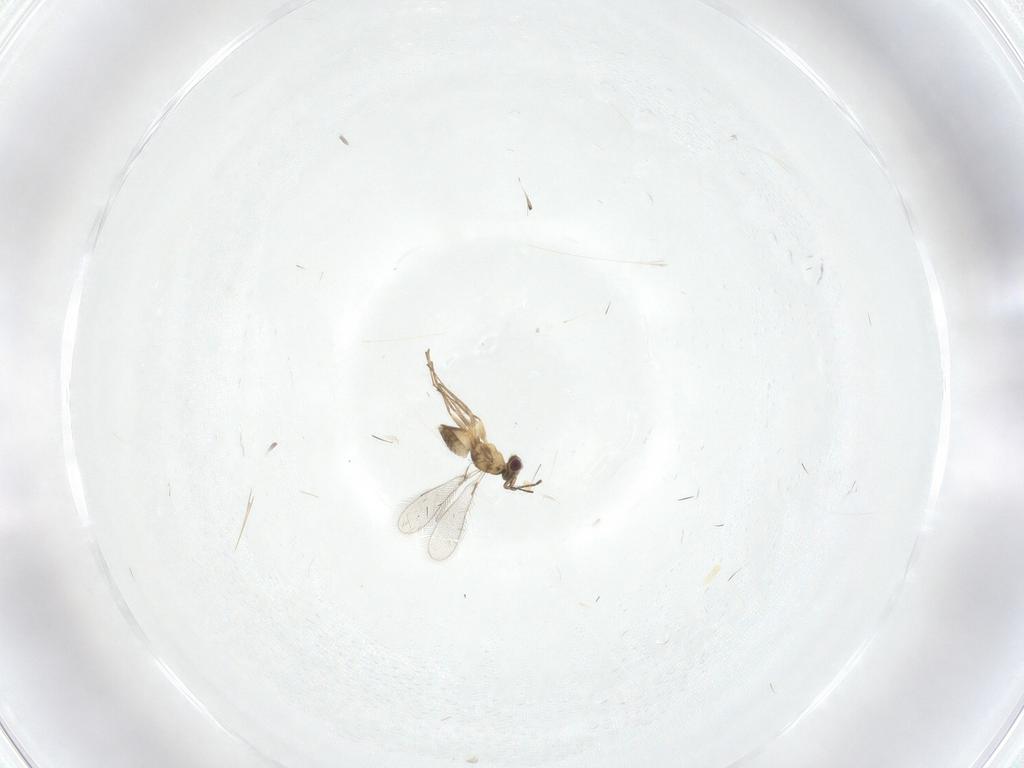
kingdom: Animalia
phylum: Arthropoda
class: Insecta
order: Hymenoptera
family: Mymaridae
